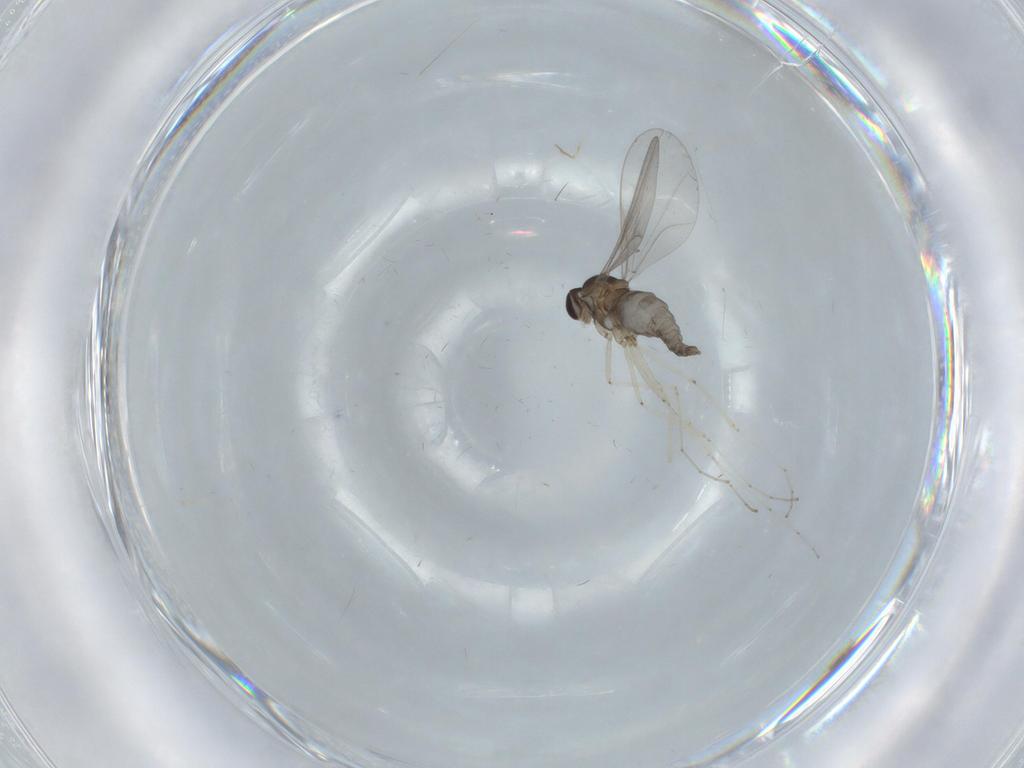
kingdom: Animalia
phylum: Arthropoda
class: Insecta
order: Diptera
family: Cecidomyiidae
